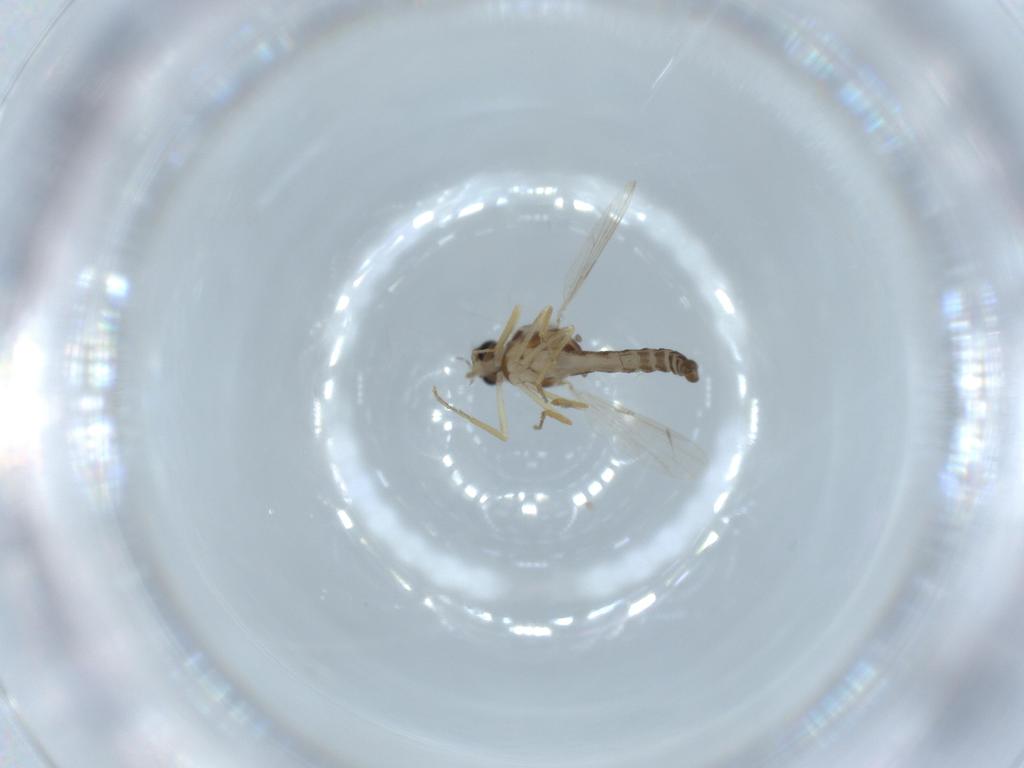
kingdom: Animalia
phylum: Arthropoda
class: Insecta
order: Diptera
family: Ceratopogonidae
